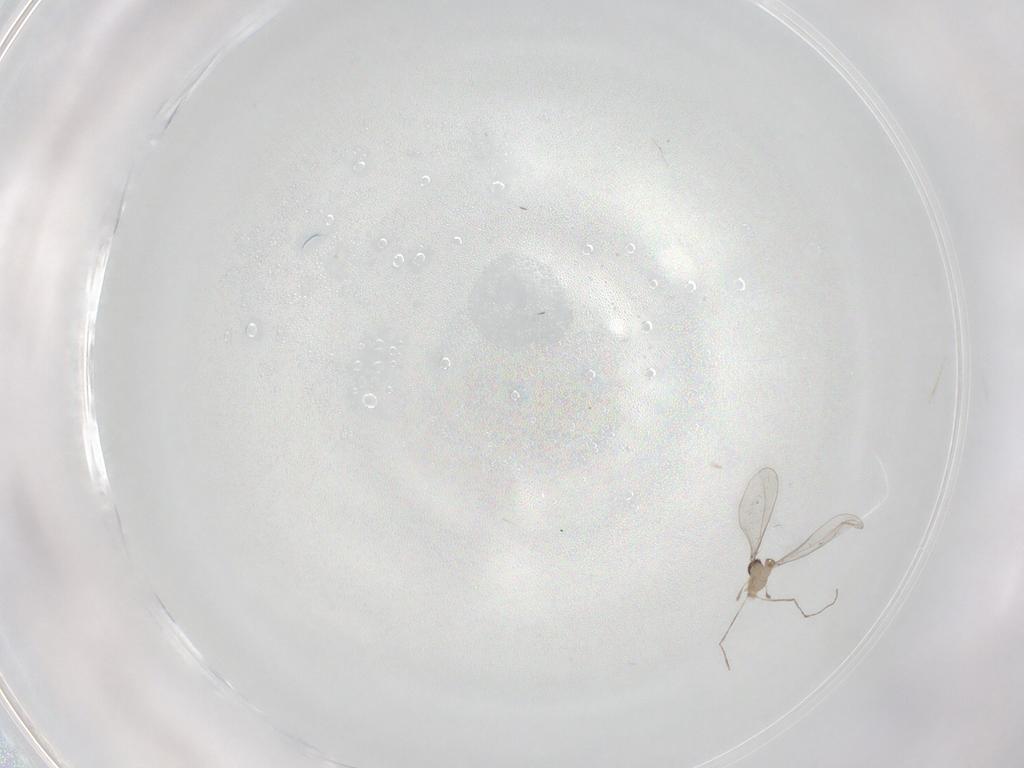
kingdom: Animalia
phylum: Arthropoda
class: Insecta
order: Diptera
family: Cecidomyiidae
